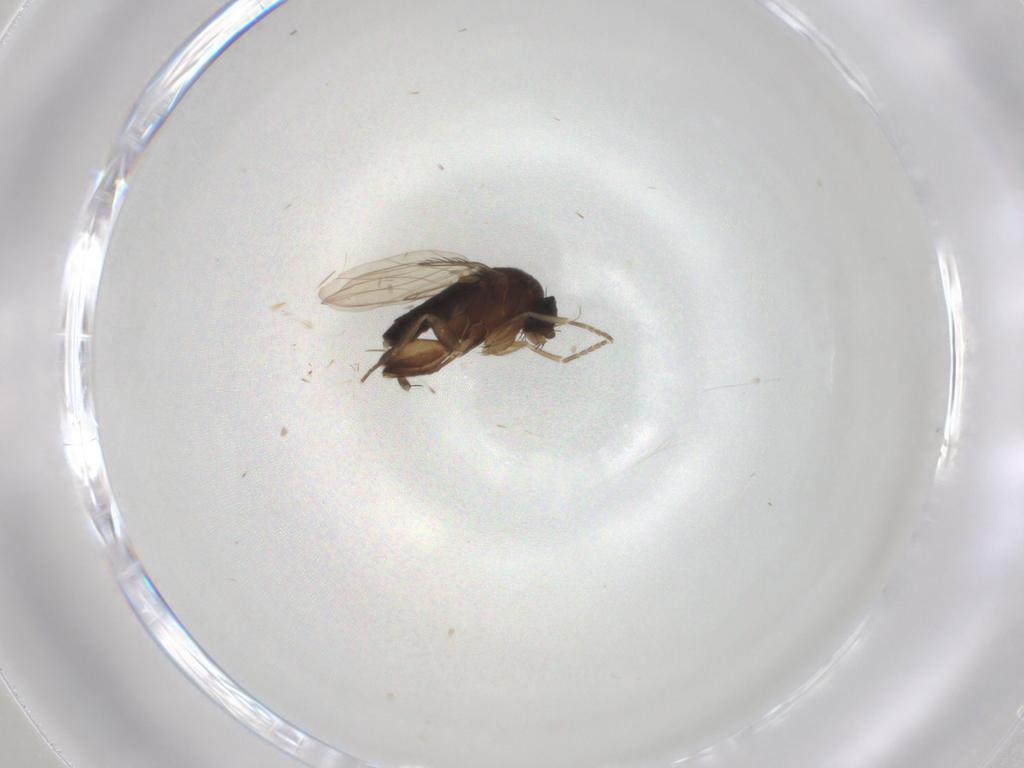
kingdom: Animalia
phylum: Arthropoda
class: Insecta
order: Diptera
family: Phoridae
